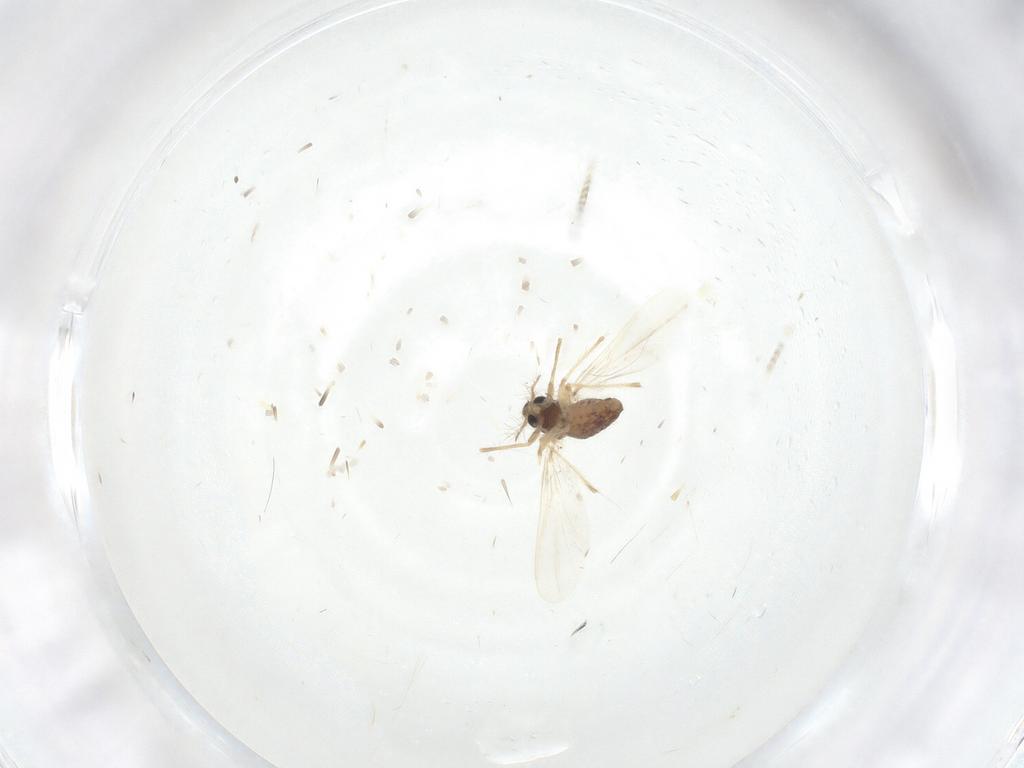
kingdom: Animalia
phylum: Arthropoda
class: Insecta
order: Diptera
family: Chironomidae
